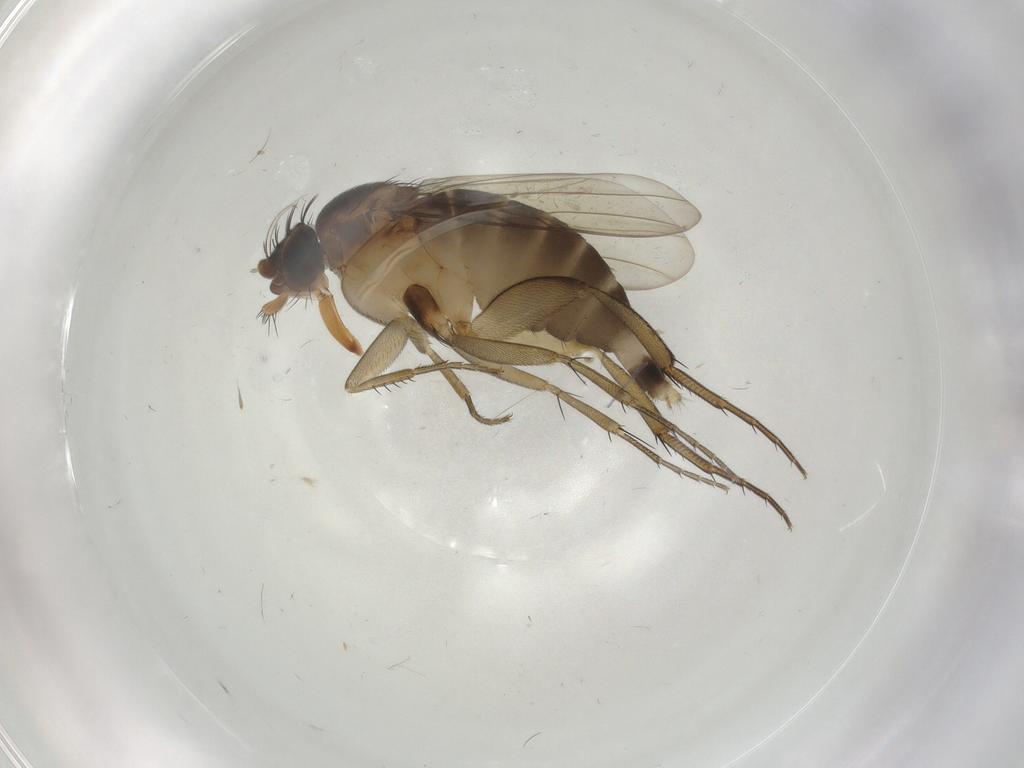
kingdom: Animalia
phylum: Arthropoda
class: Insecta
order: Diptera
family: Phoridae
